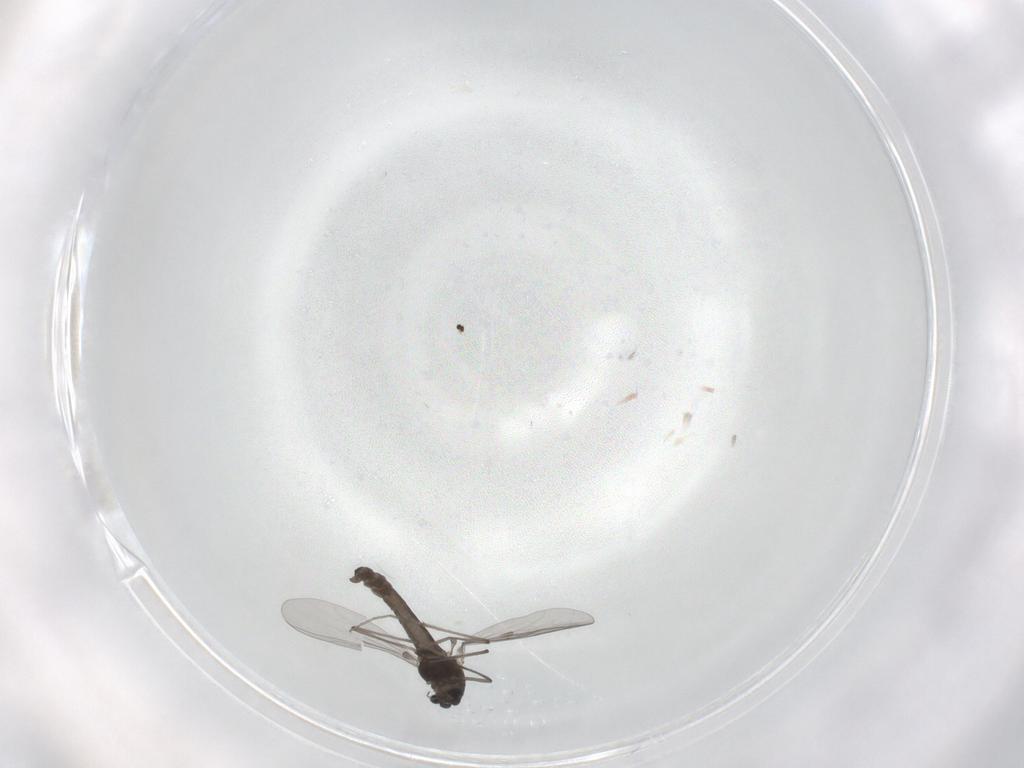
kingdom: Animalia
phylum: Arthropoda
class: Insecta
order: Diptera
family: Chironomidae
